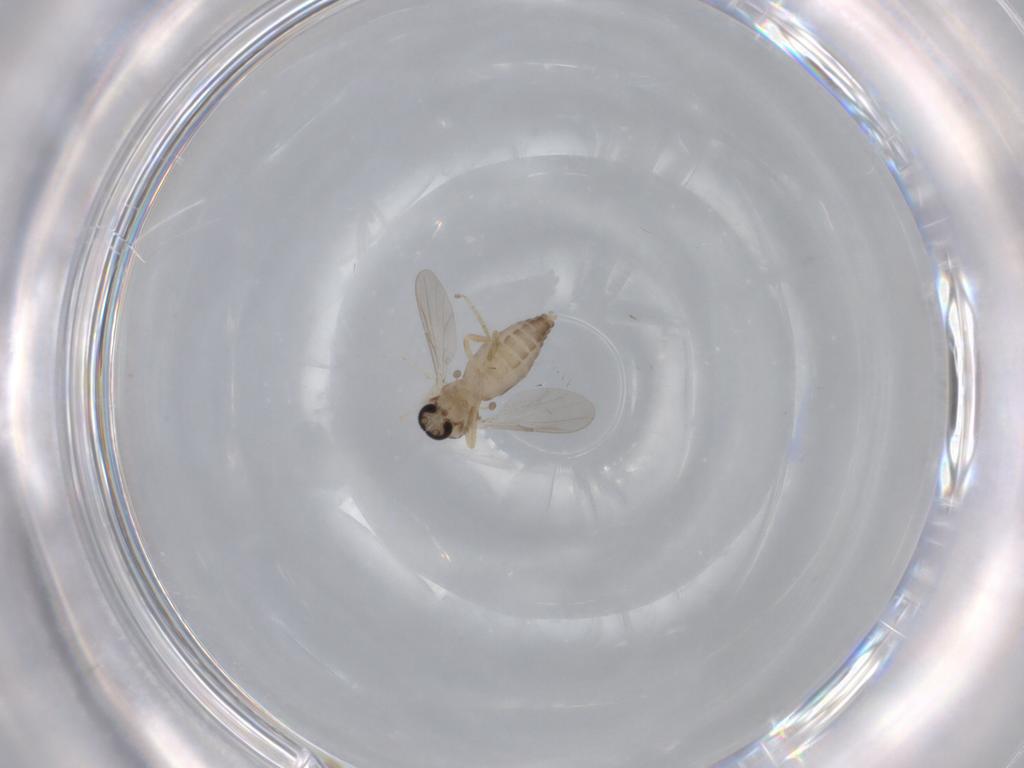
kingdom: Animalia
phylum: Arthropoda
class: Insecta
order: Diptera
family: Ceratopogonidae
